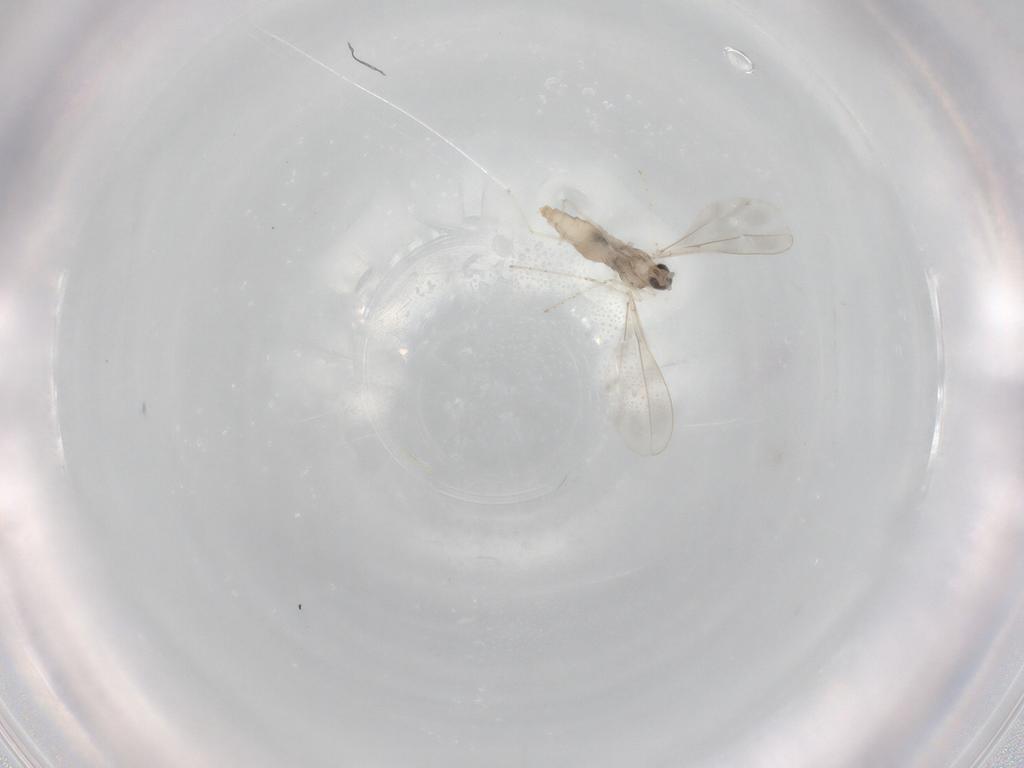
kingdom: Animalia
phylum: Arthropoda
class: Insecta
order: Diptera
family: Cecidomyiidae
